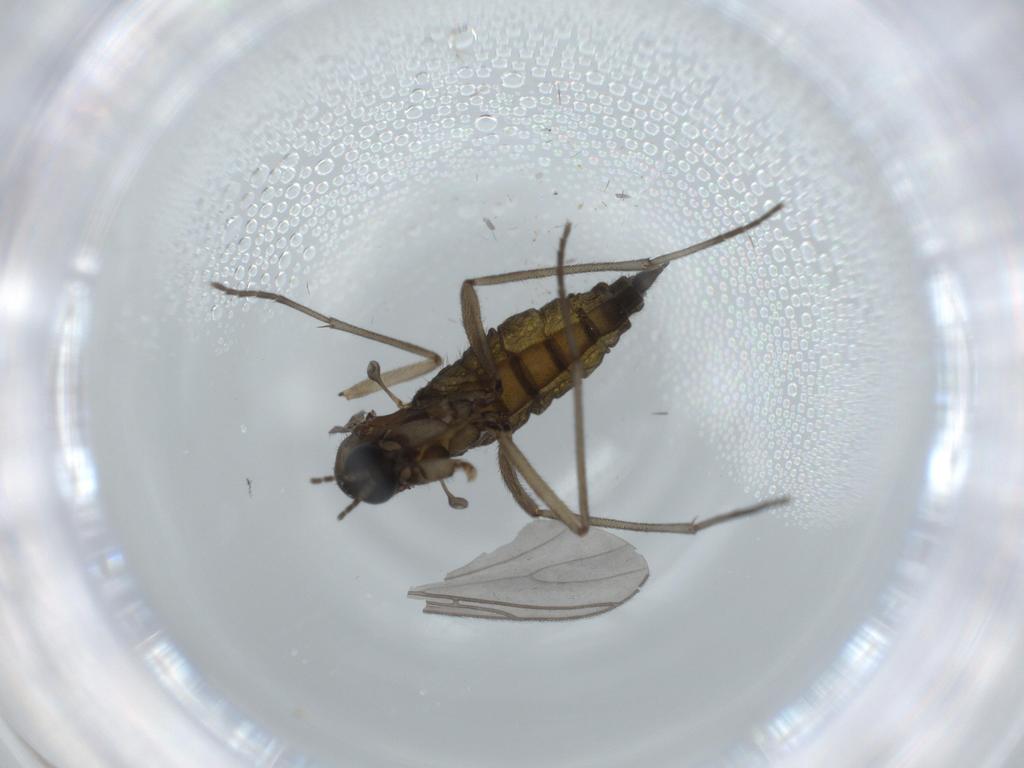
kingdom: Animalia
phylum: Arthropoda
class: Insecta
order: Diptera
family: Sciaridae
